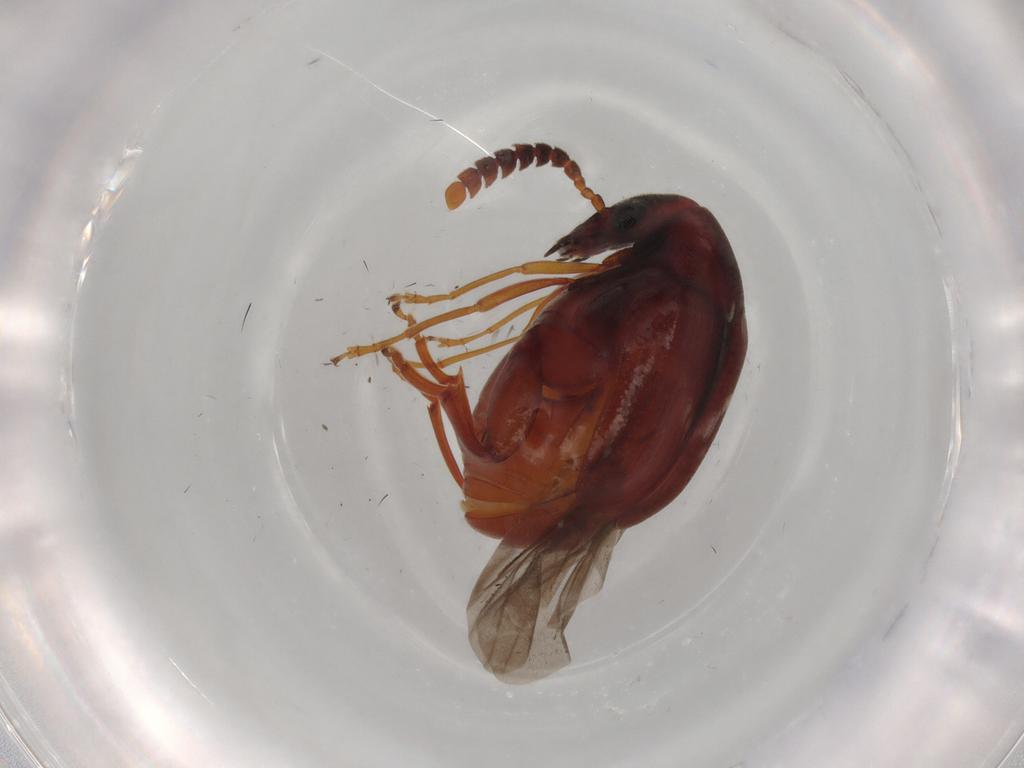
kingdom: Animalia
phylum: Arthropoda
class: Insecta
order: Coleoptera
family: Chrysomelidae
